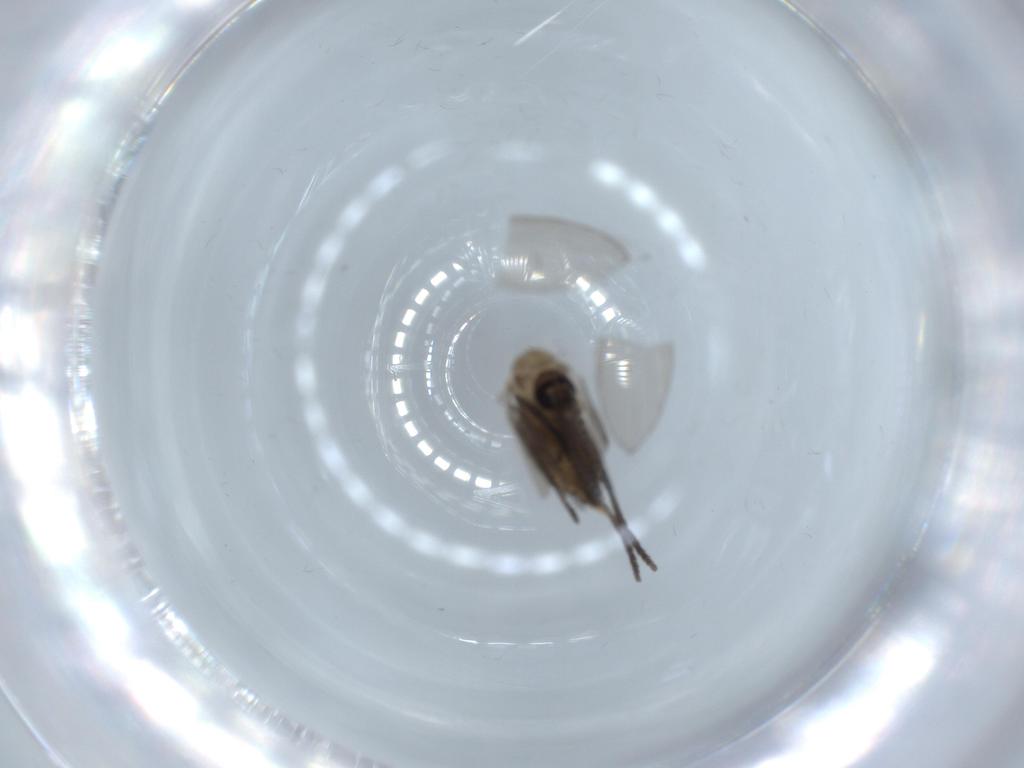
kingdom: Animalia
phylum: Arthropoda
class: Insecta
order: Diptera
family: Psychodidae
